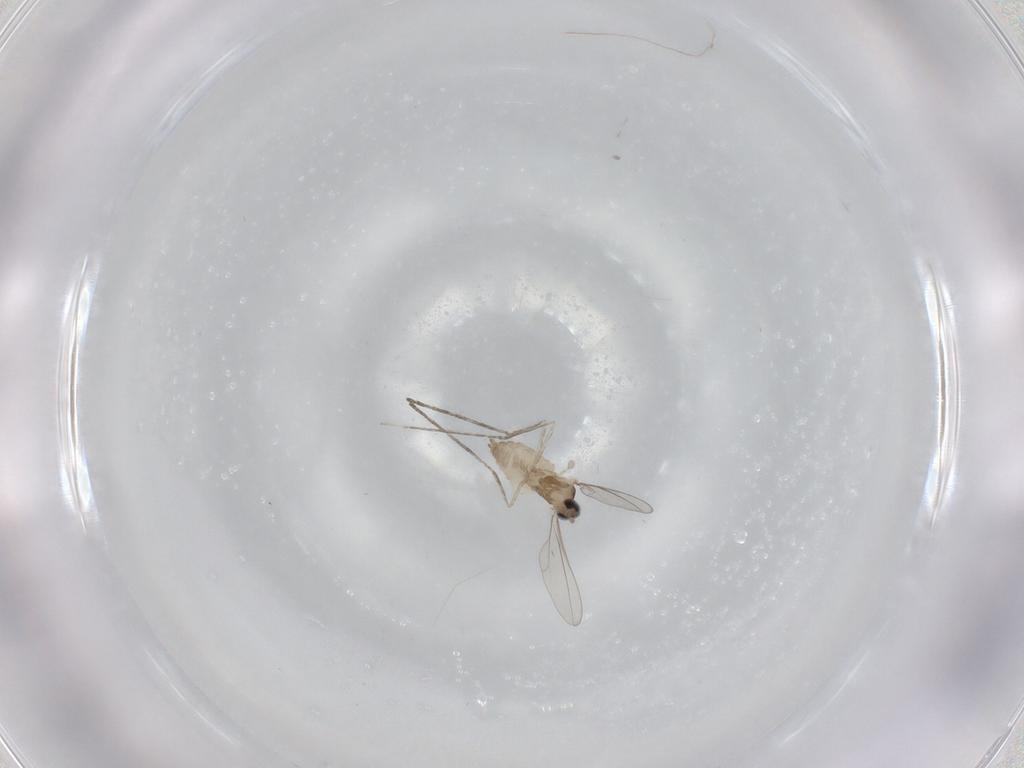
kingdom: Animalia
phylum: Arthropoda
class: Insecta
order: Diptera
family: Cecidomyiidae
